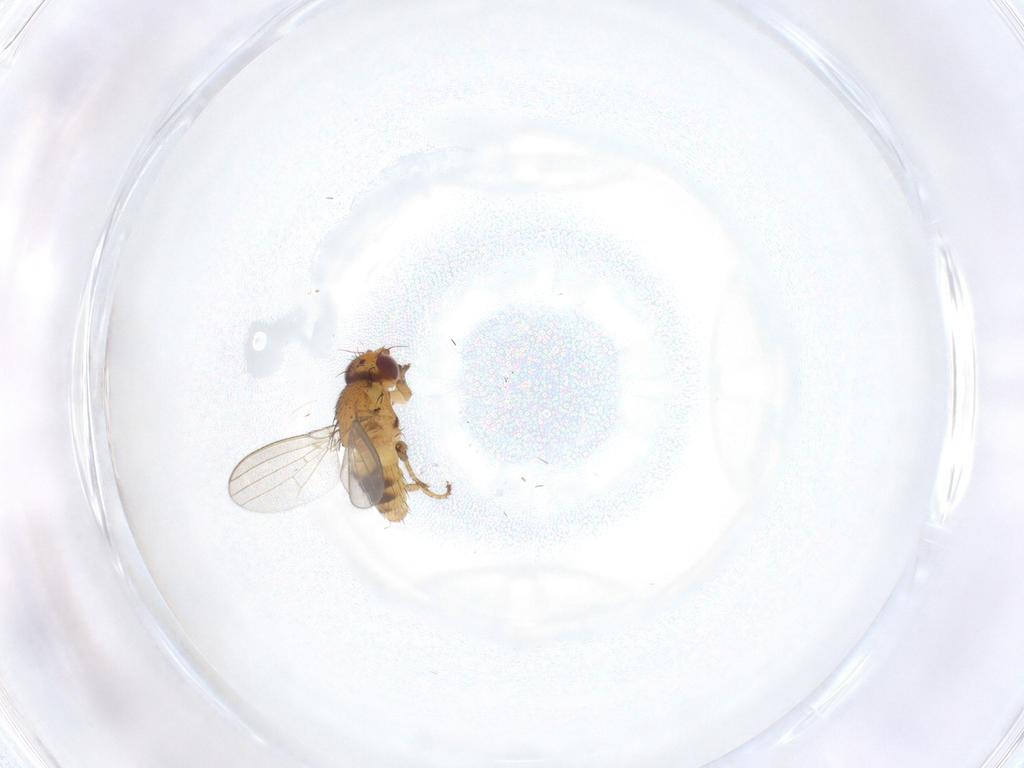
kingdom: Animalia
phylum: Arthropoda
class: Insecta
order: Diptera
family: Milichiidae
